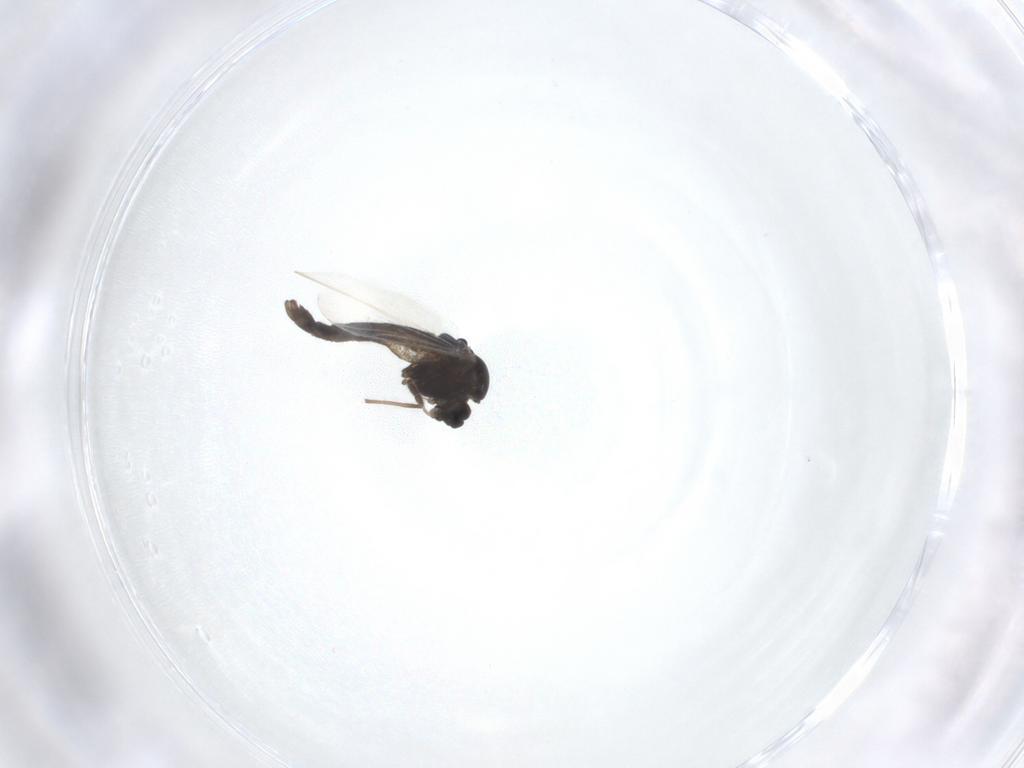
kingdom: Animalia
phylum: Arthropoda
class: Insecta
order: Diptera
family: Chironomidae
